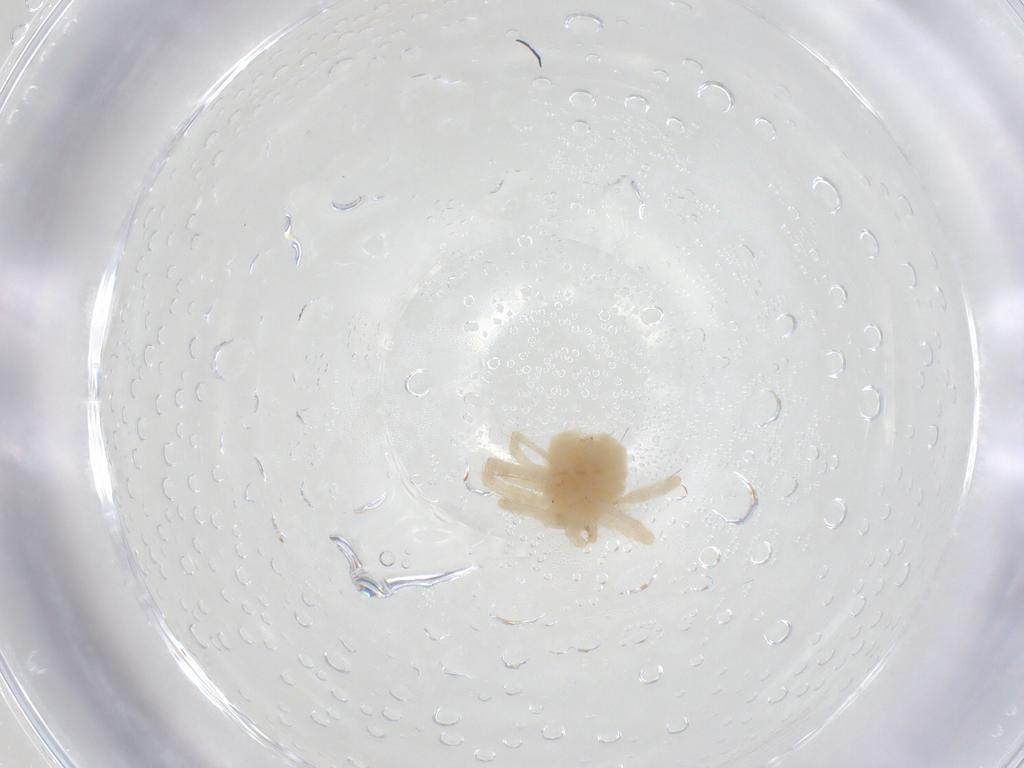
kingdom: Animalia
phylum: Arthropoda
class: Arachnida
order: Trombidiformes
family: Anystidae
